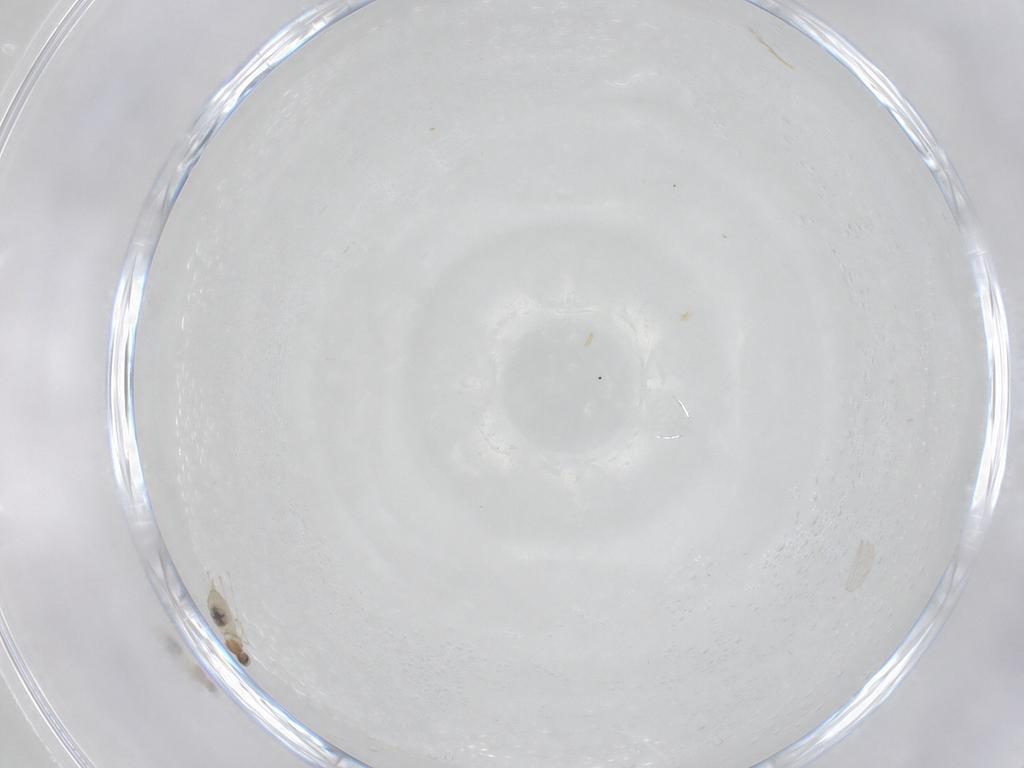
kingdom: Animalia
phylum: Arthropoda
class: Insecta
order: Diptera
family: Cecidomyiidae
